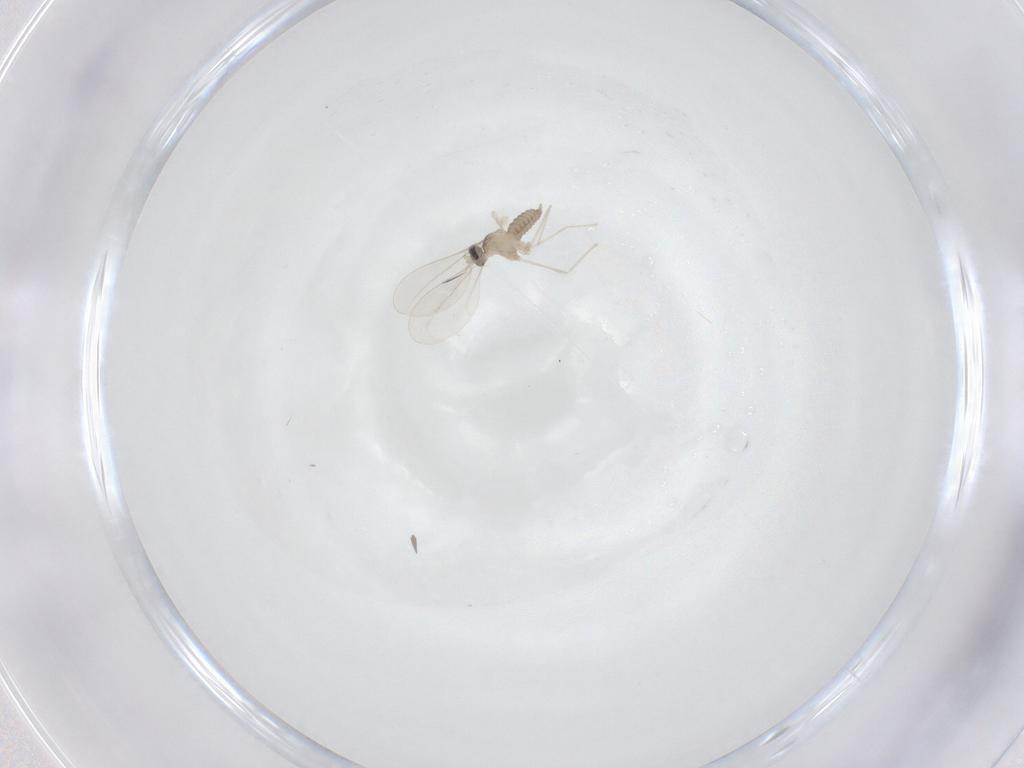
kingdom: Animalia
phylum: Arthropoda
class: Insecta
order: Diptera
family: Cecidomyiidae
